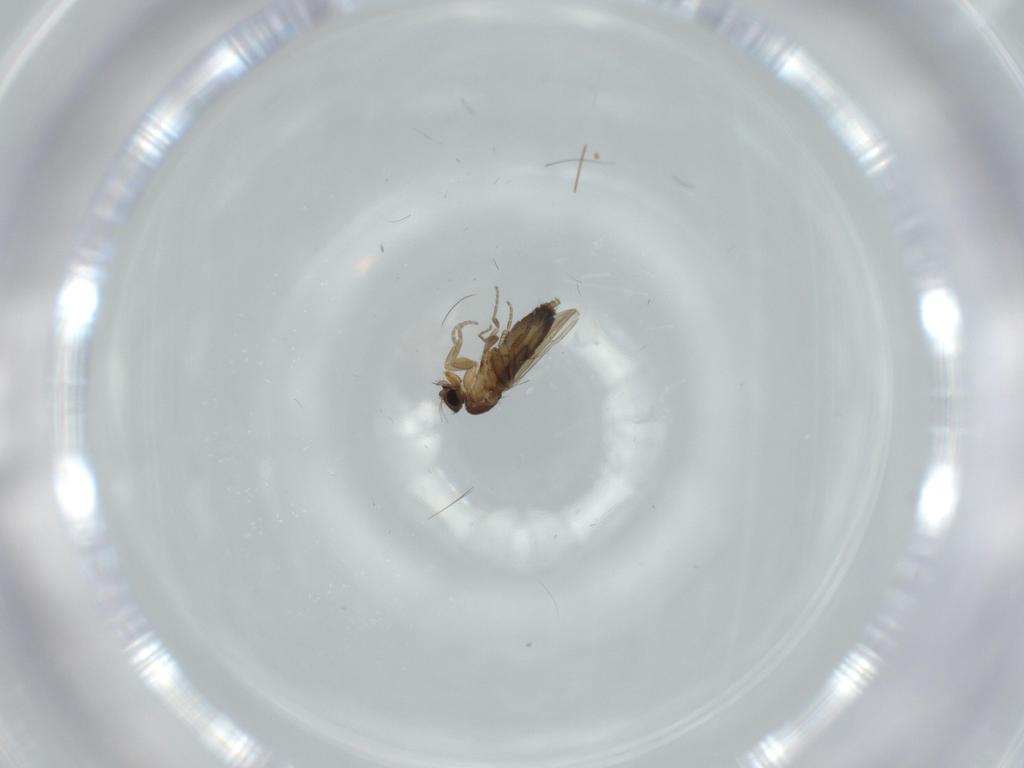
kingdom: Animalia
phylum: Arthropoda
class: Insecta
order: Diptera
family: Phoridae
